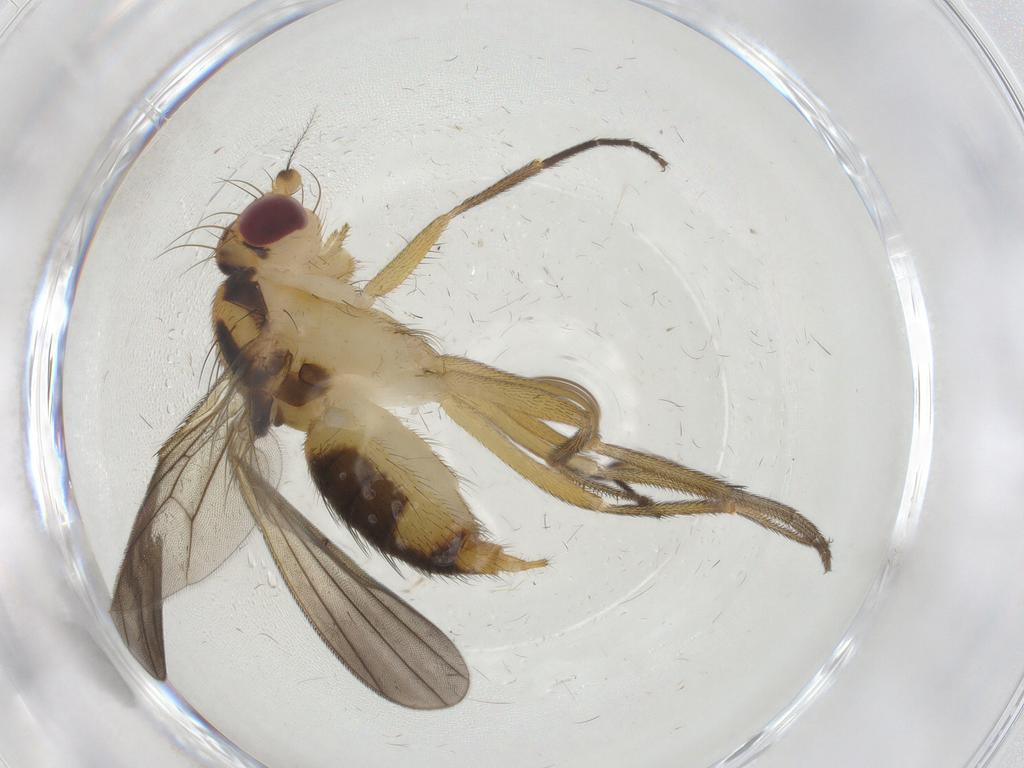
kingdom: Animalia
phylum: Arthropoda
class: Insecta
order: Diptera
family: Clusiidae
